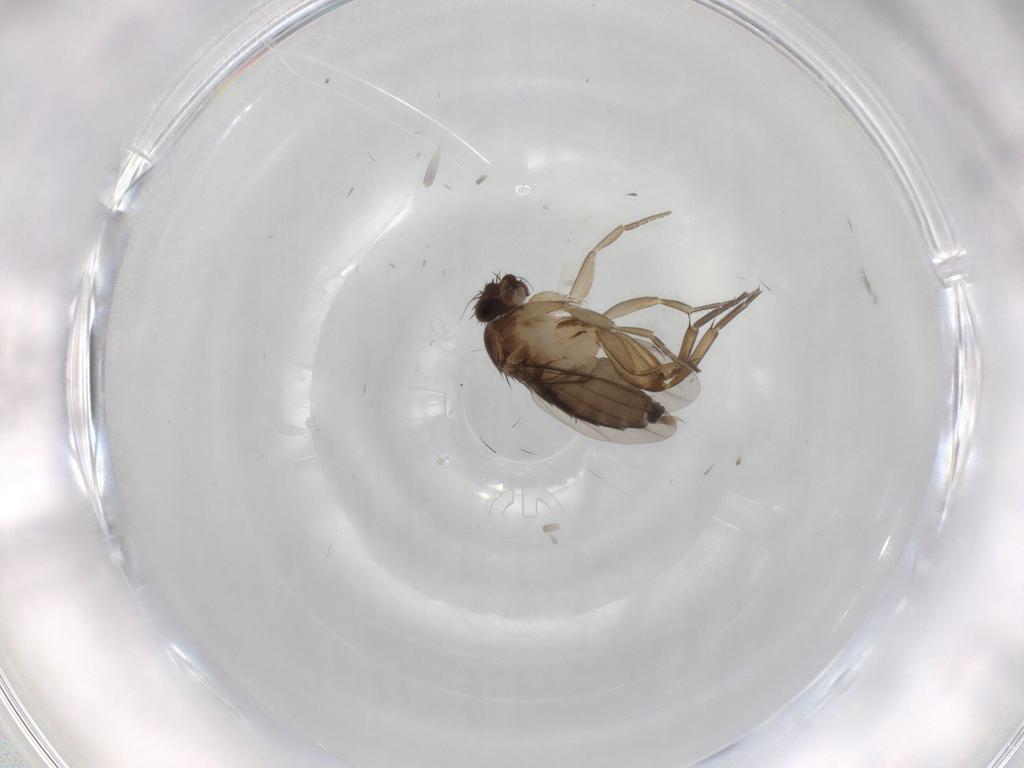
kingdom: Animalia
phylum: Arthropoda
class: Insecta
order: Diptera
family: Phoridae
